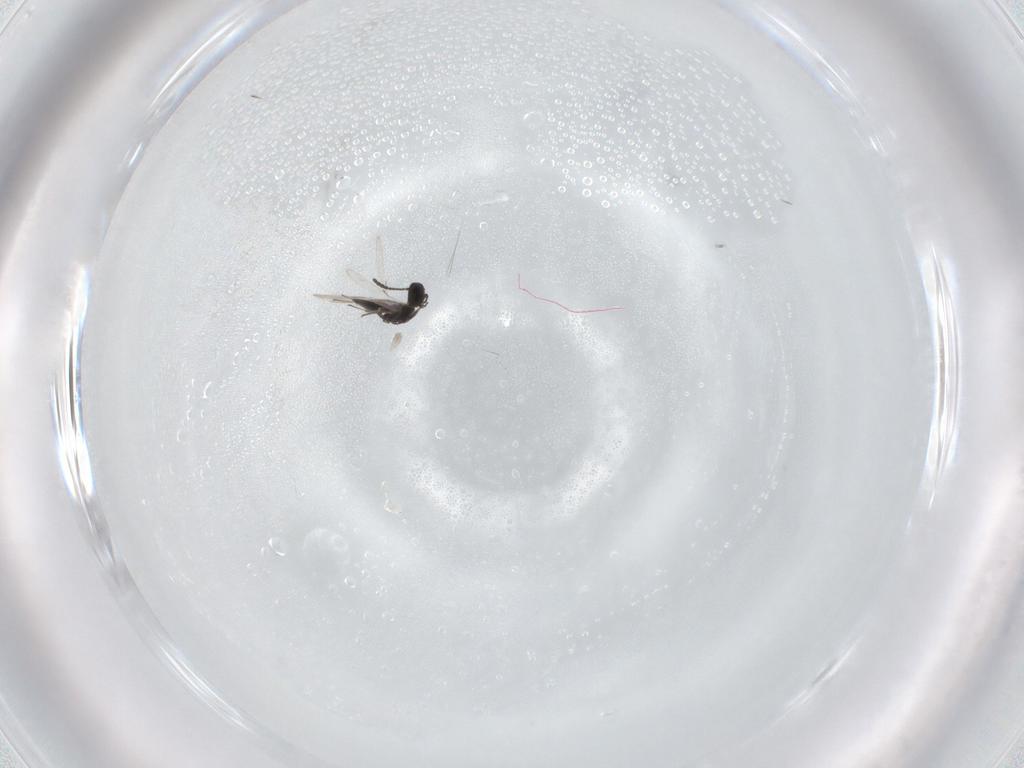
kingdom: Animalia
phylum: Arthropoda
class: Insecta
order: Hymenoptera
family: Scelionidae
